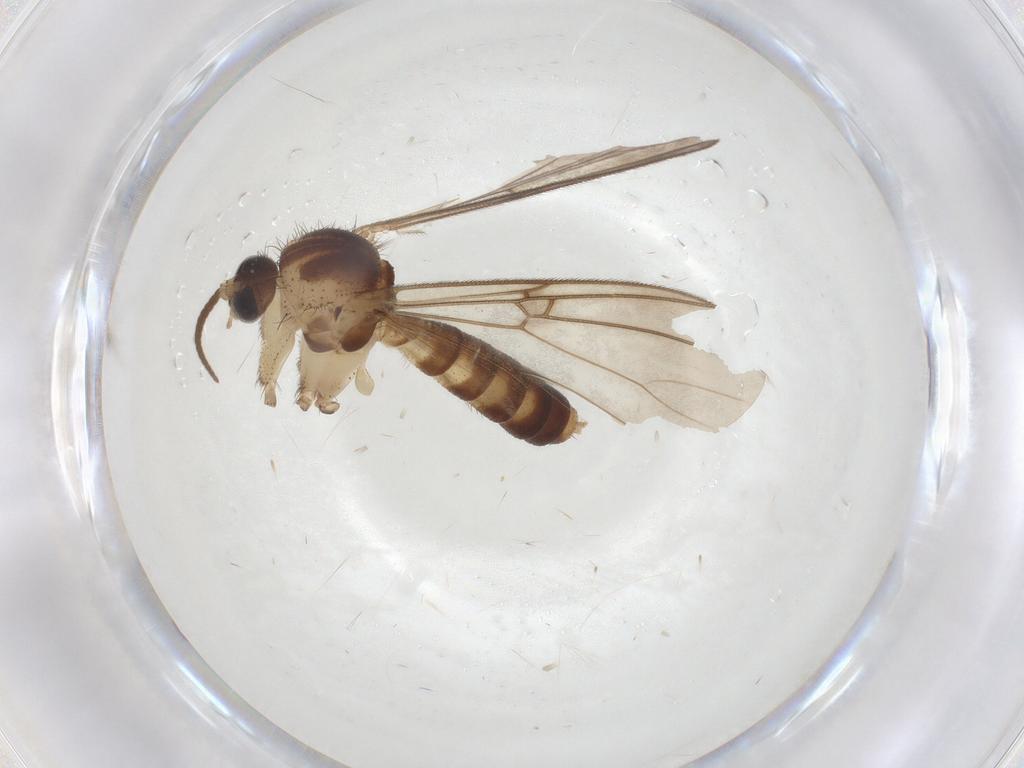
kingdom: Animalia
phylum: Arthropoda
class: Insecta
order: Diptera
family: Mycetophilidae
